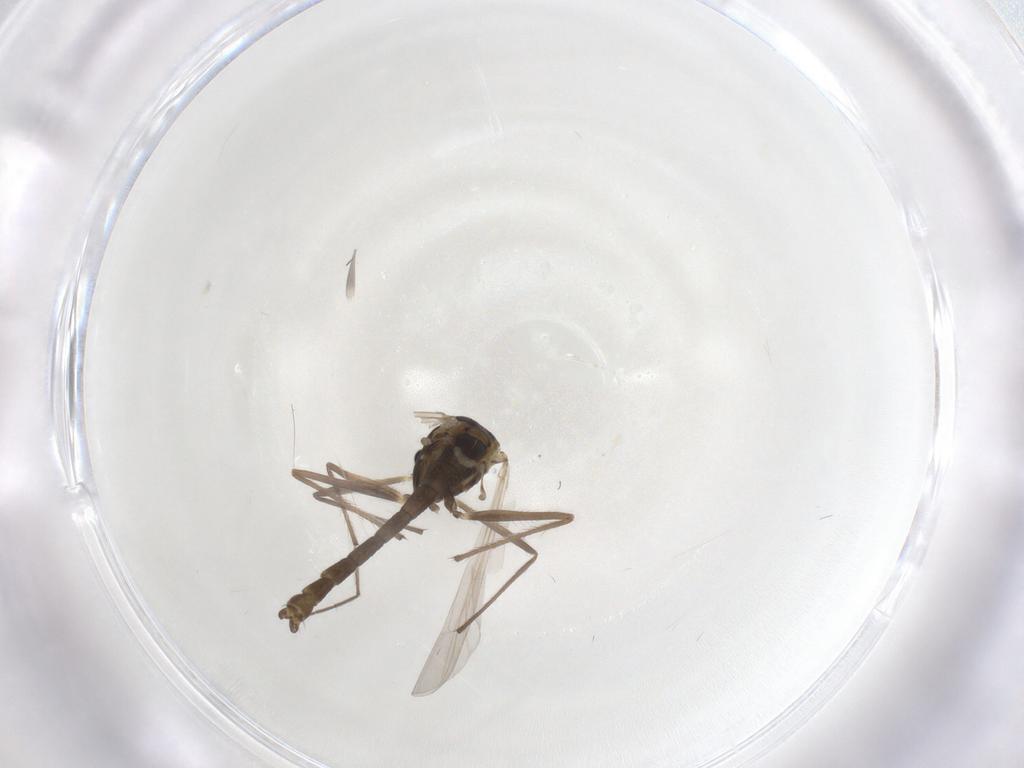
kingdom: Animalia
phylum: Arthropoda
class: Insecta
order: Diptera
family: Chironomidae
